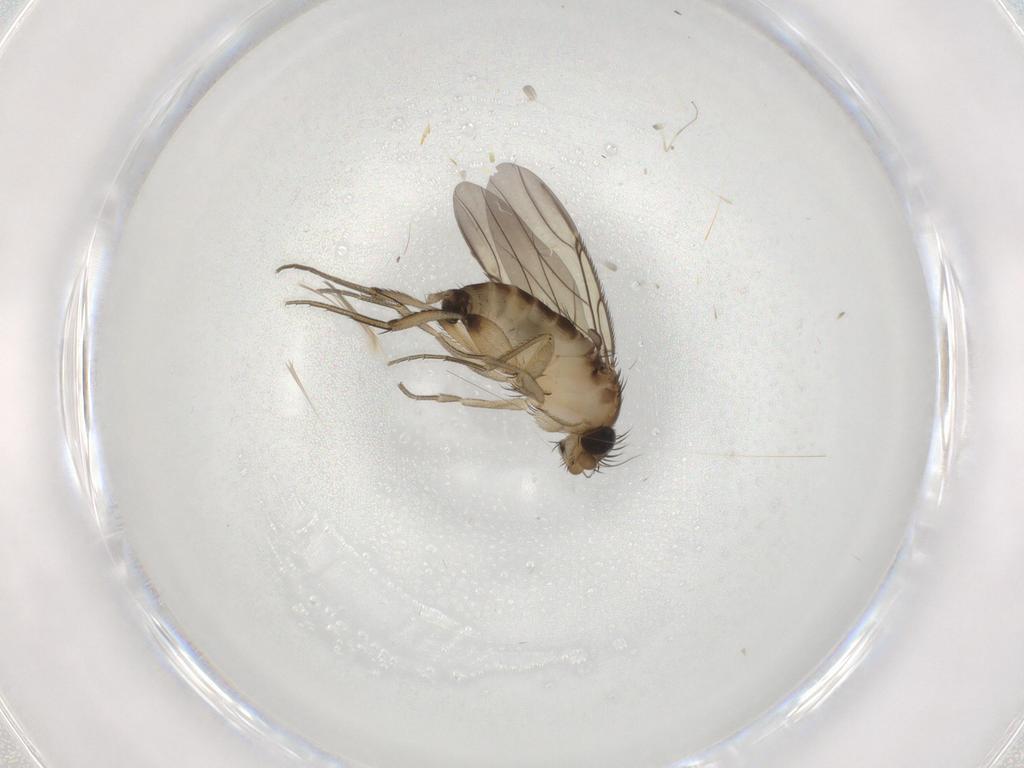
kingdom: Animalia
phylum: Arthropoda
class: Insecta
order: Diptera
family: Phoridae
